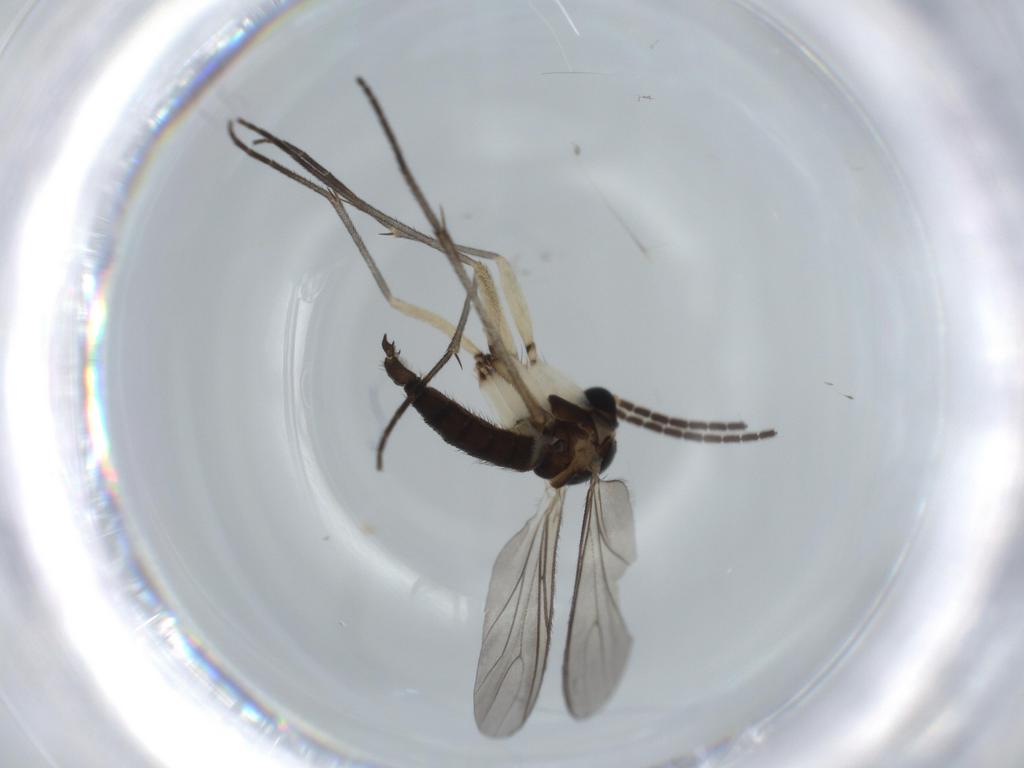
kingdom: Animalia
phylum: Arthropoda
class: Insecta
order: Diptera
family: Sciaridae
